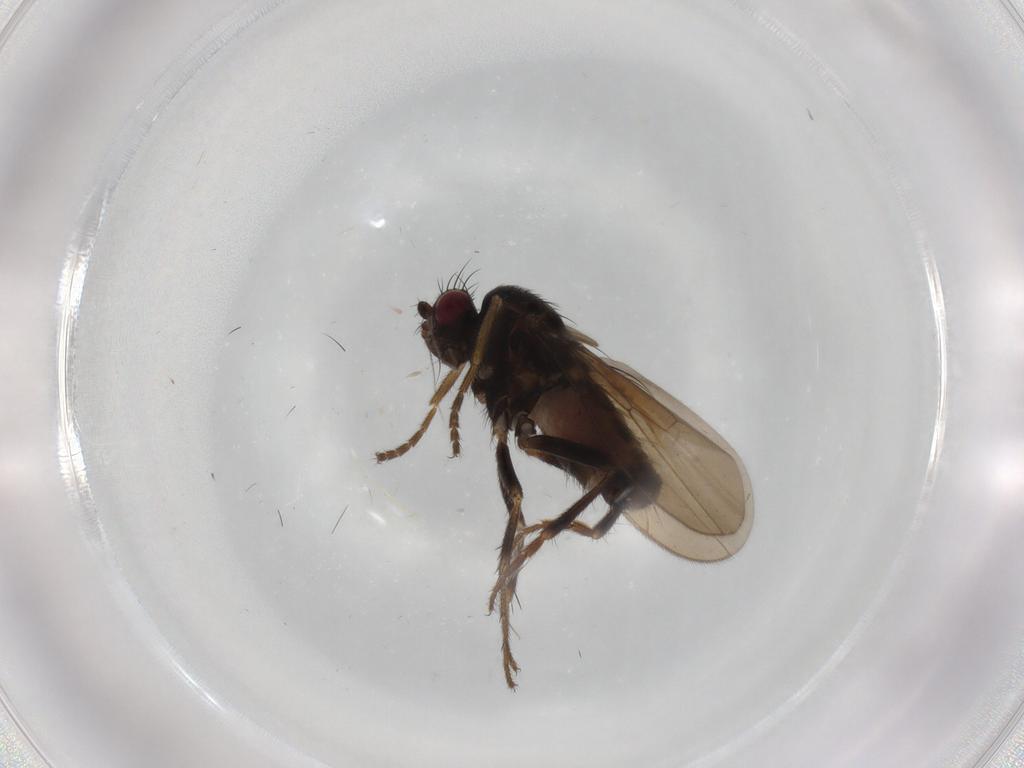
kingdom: Animalia
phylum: Arthropoda
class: Insecta
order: Diptera
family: Sphaeroceridae
